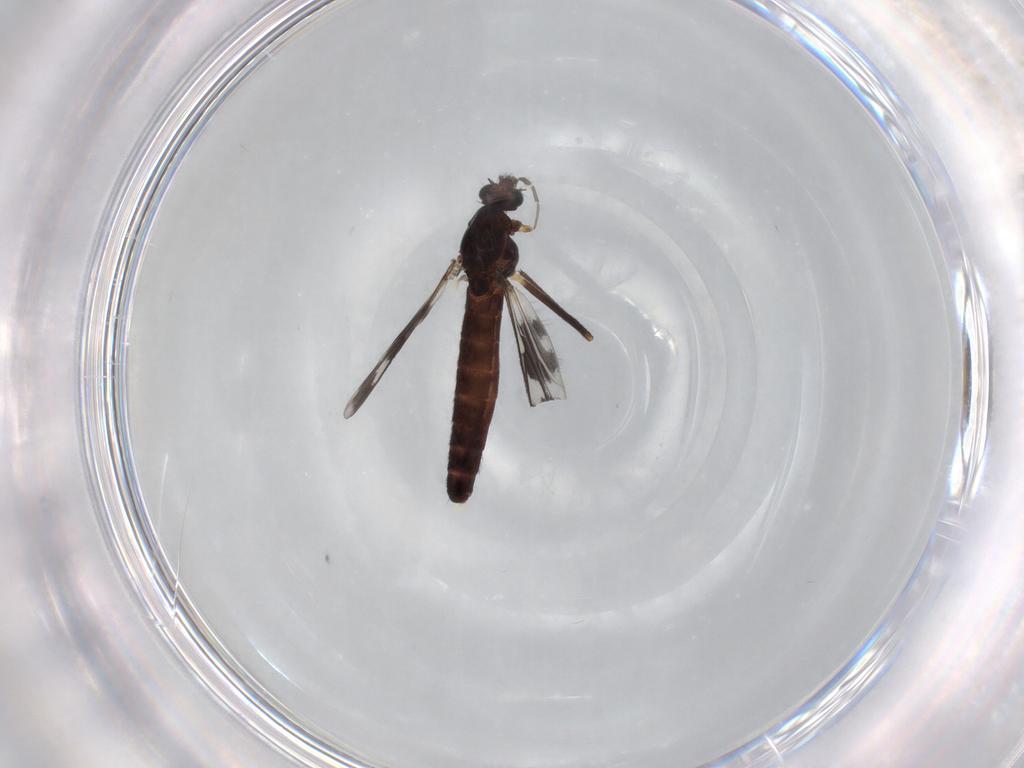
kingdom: Animalia
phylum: Arthropoda
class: Insecta
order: Diptera
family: Chironomidae
